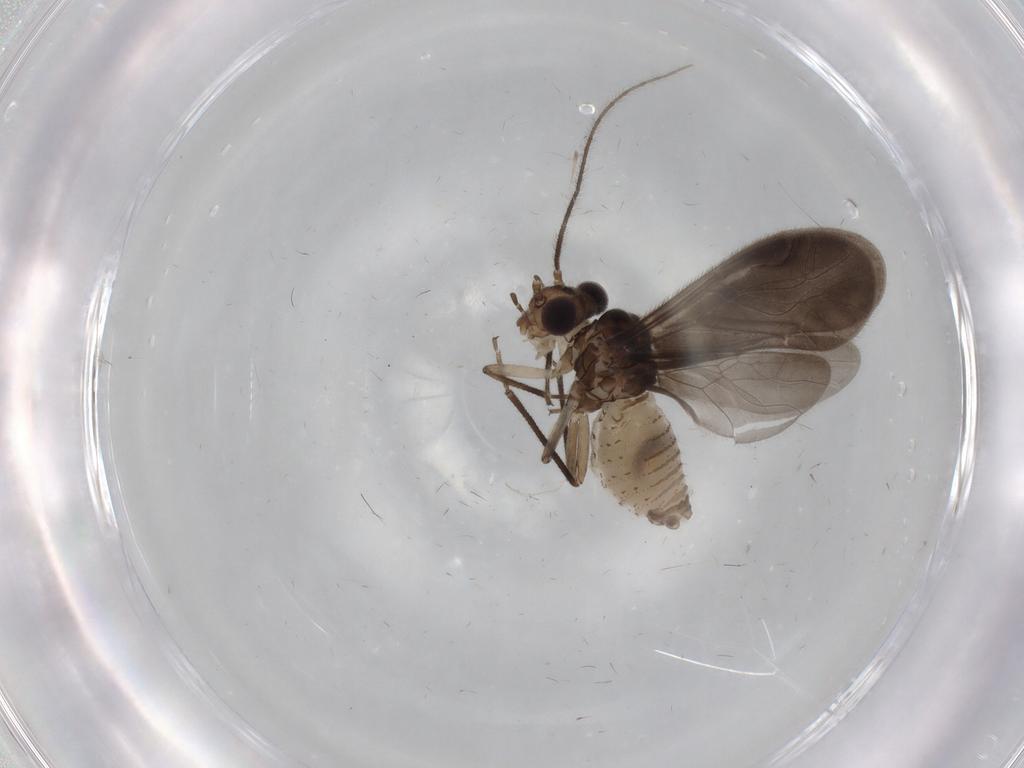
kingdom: Animalia
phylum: Arthropoda
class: Insecta
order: Psocodea
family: Caeciliusidae
